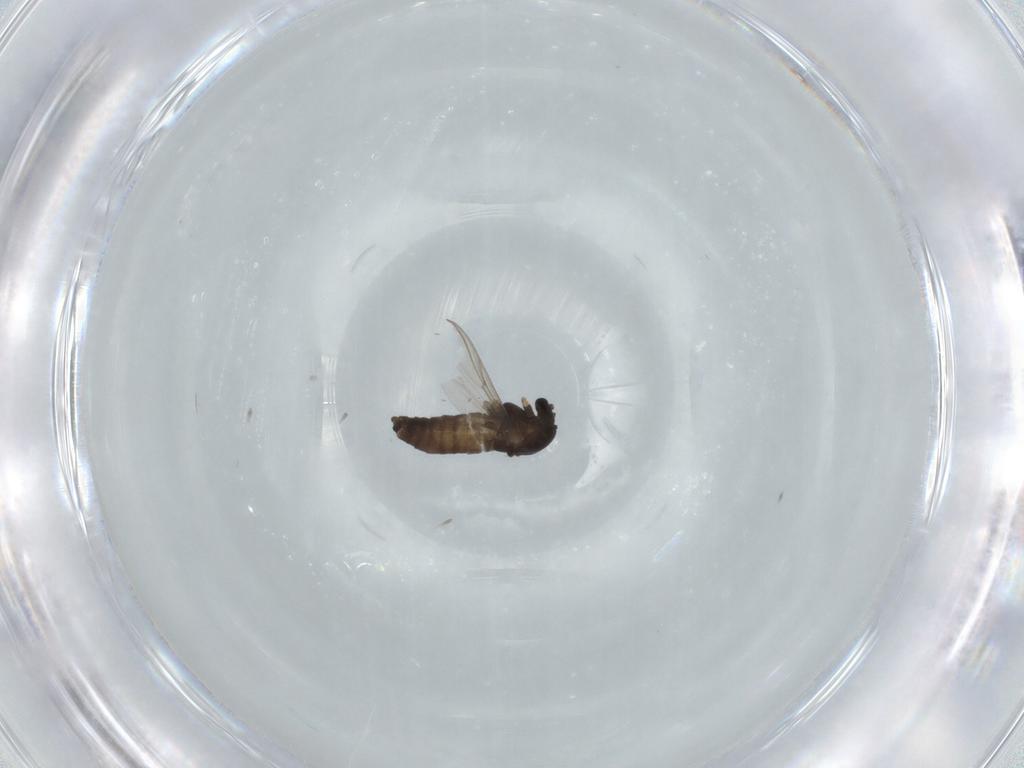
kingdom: Animalia
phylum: Arthropoda
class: Insecta
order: Diptera
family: Chironomidae
